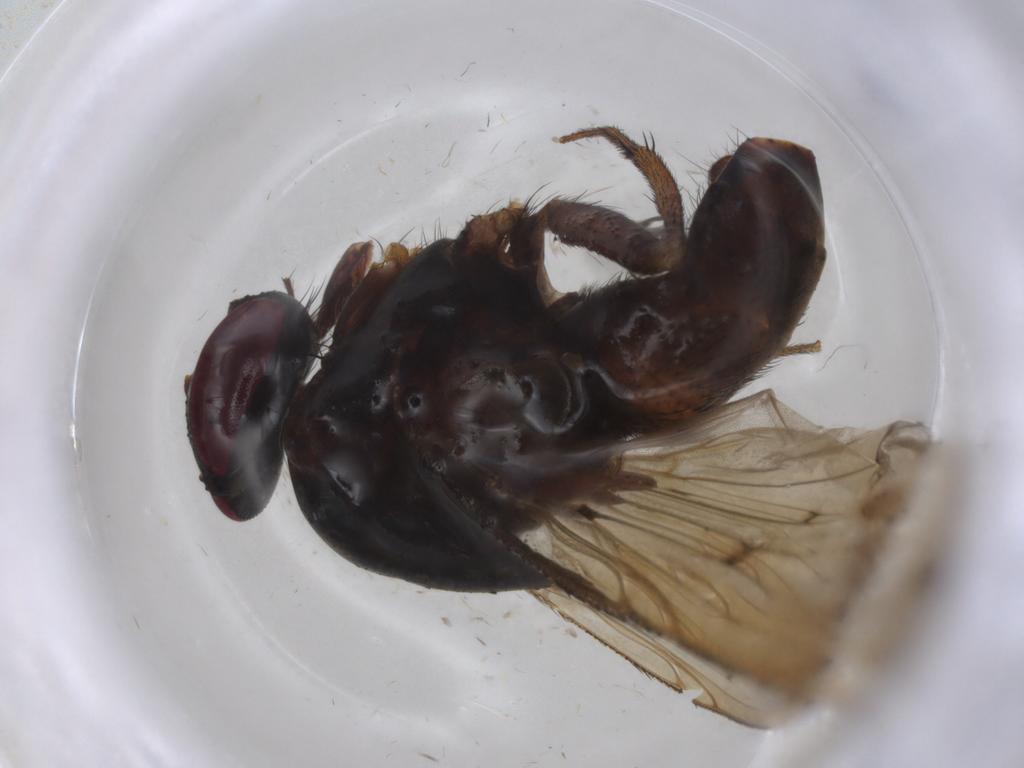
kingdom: Animalia
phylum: Arthropoda
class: Insecta
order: Diptera
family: Muscidae
